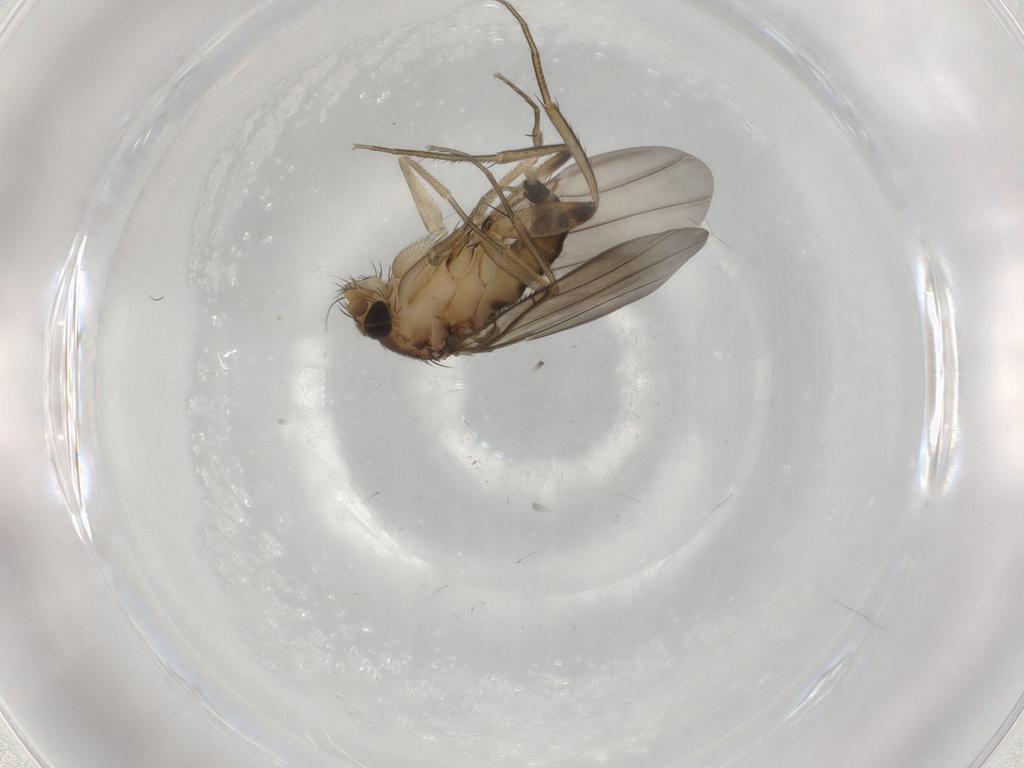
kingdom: Animalia
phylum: Arthropoda
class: Insecta
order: Diptera
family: Phoridae
